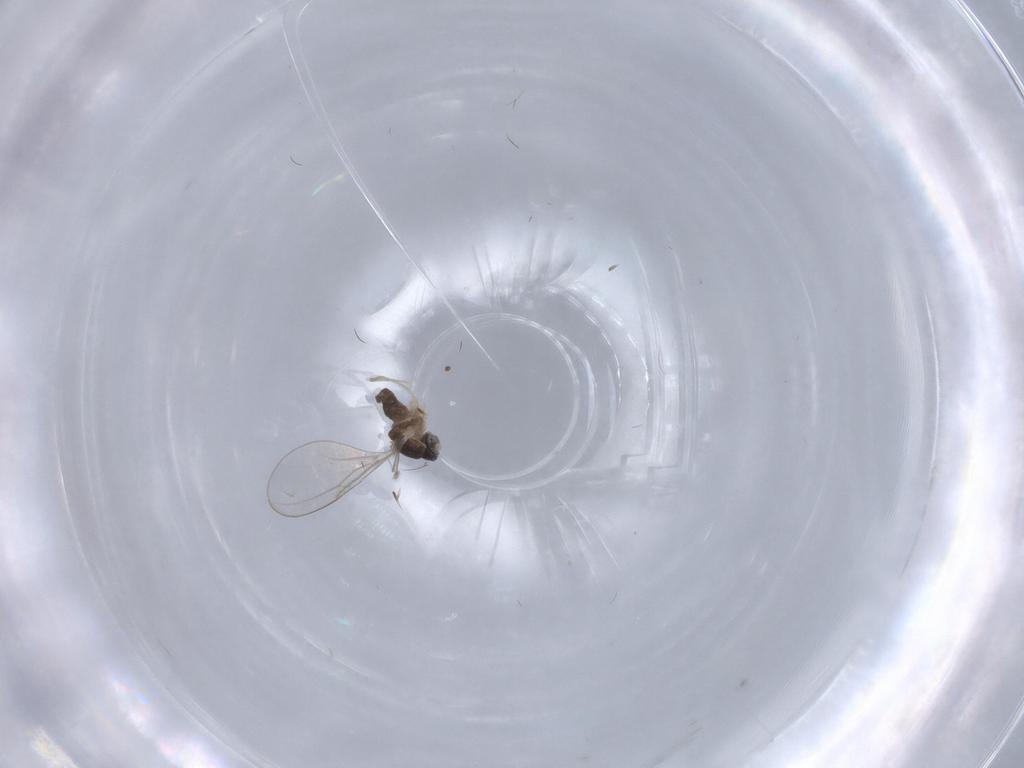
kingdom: Animalia
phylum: Arthropoda
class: Insecta
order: Diptera
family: Cecidomyiidae
